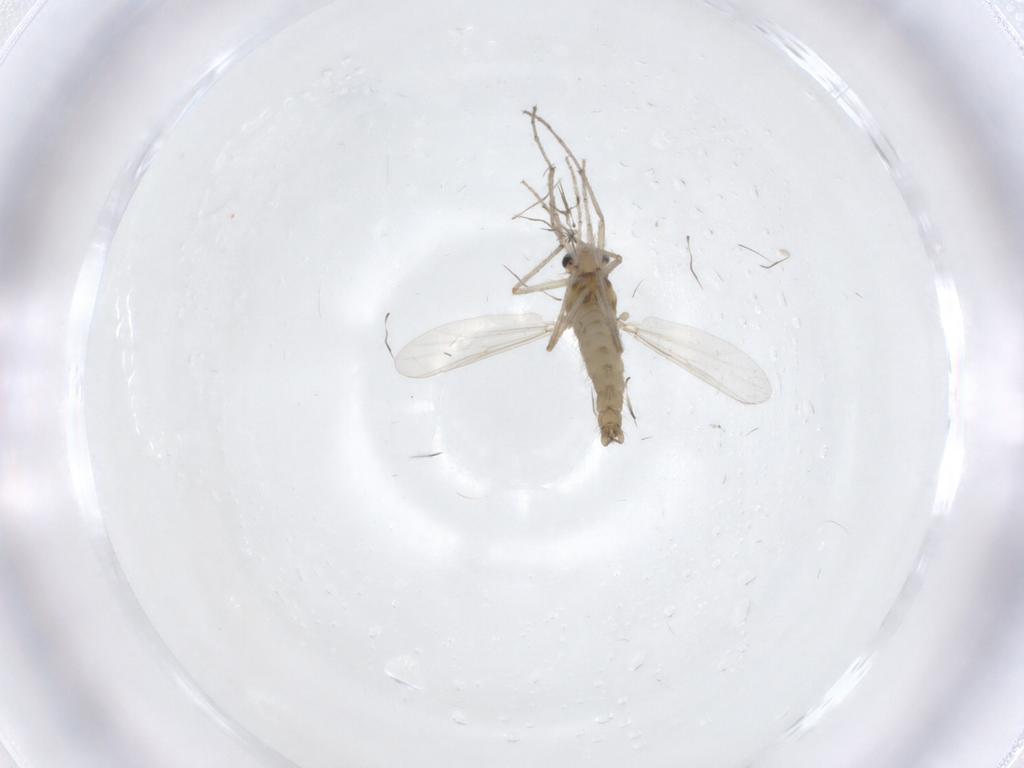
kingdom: Animalia
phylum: Arthropoda
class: Insecta
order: Diptera
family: Chironomidae
